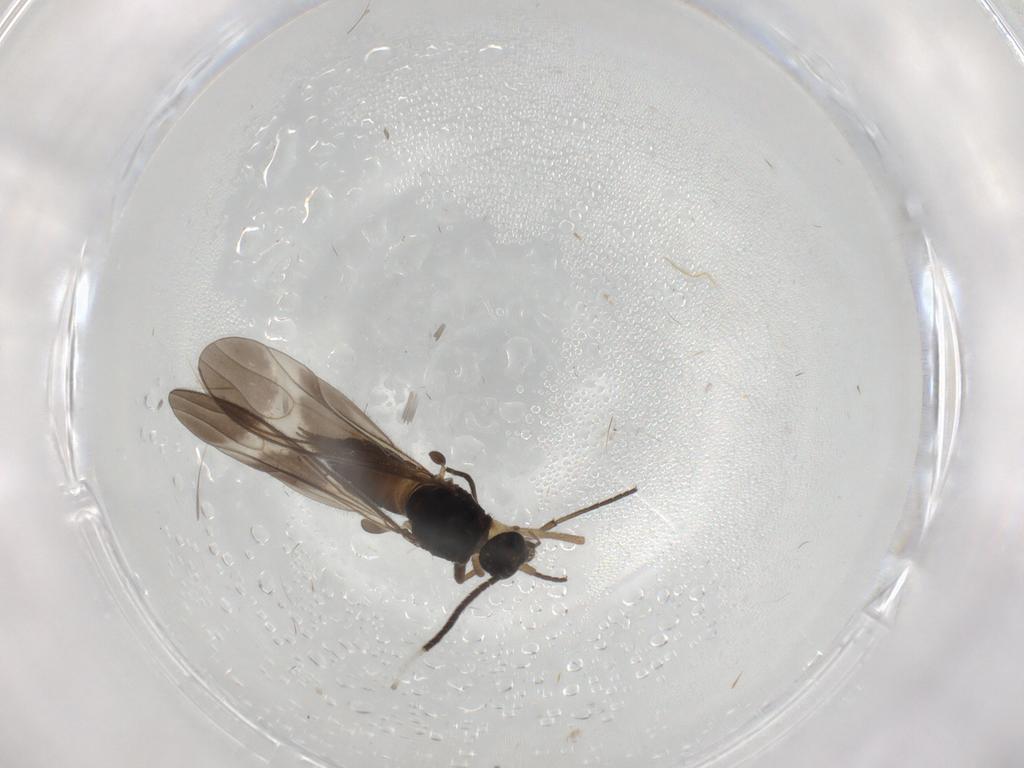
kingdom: Animalia
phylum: Arthropoda
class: Insecta
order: Diptera
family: Sciaridae
